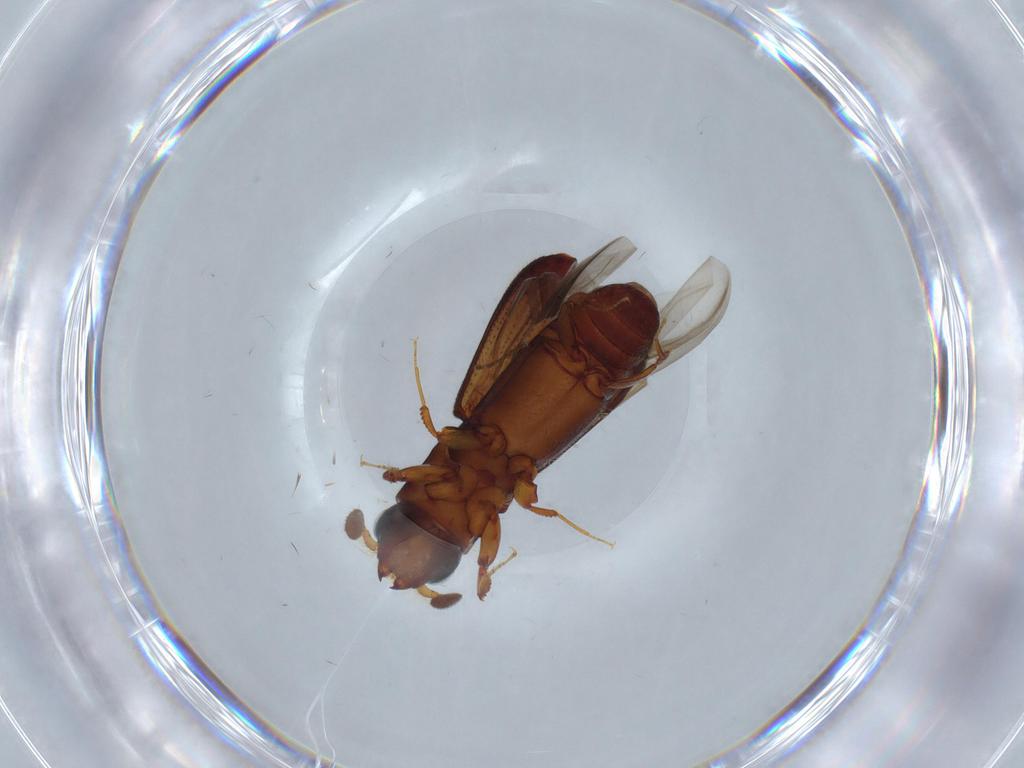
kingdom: Animalia
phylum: Arthropoda
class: Insecta
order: Coleoptera
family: Curculionidae
